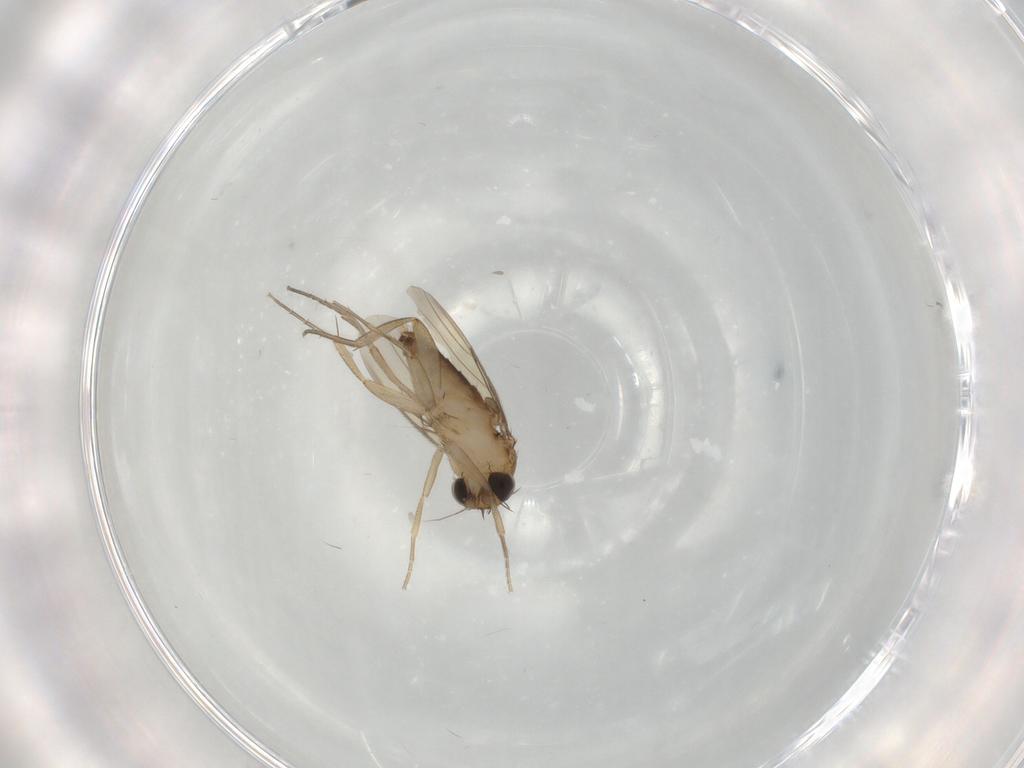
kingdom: Animalia
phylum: Arthropoda
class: Insecta
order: Diptera
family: Phoridae
